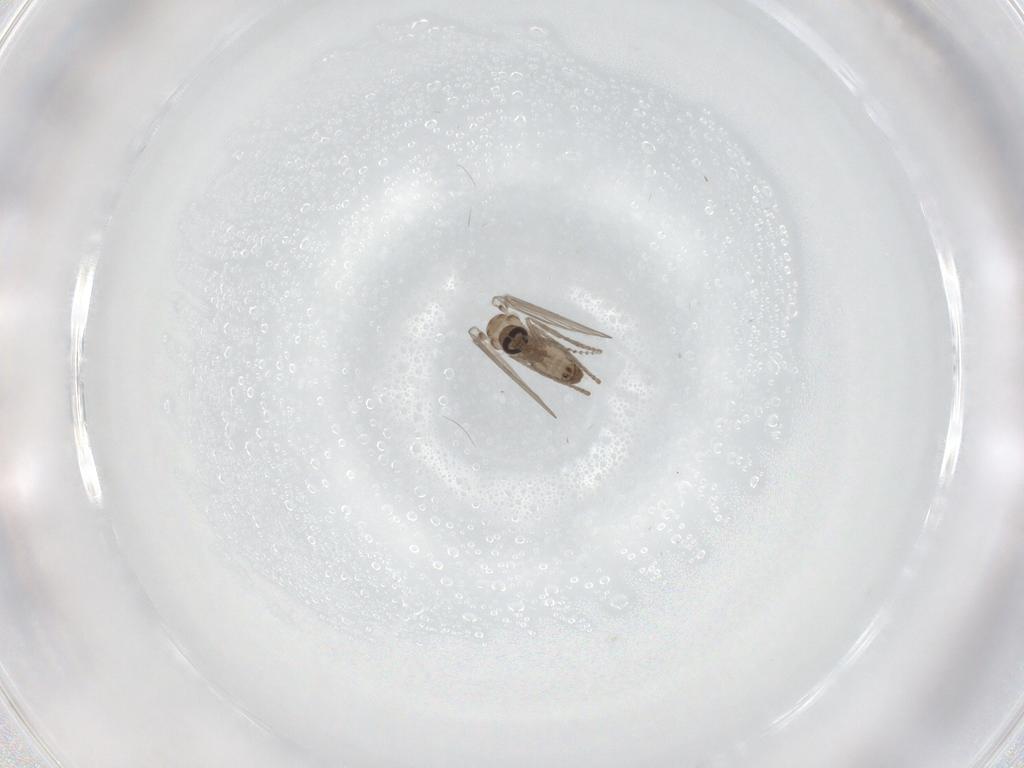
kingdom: Animalia
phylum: Arthropoda
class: Insecta
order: Diptera
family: Psychodidae
